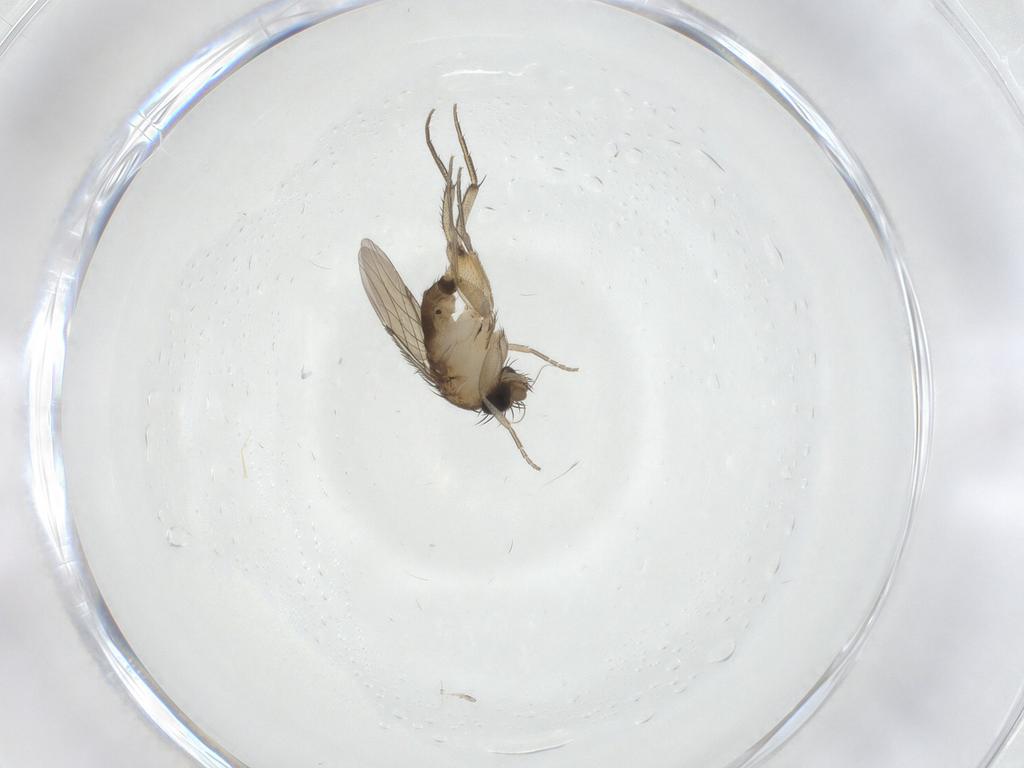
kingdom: Animalia
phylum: Arthropoda
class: Insecta
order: Diptera
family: Phoridae
